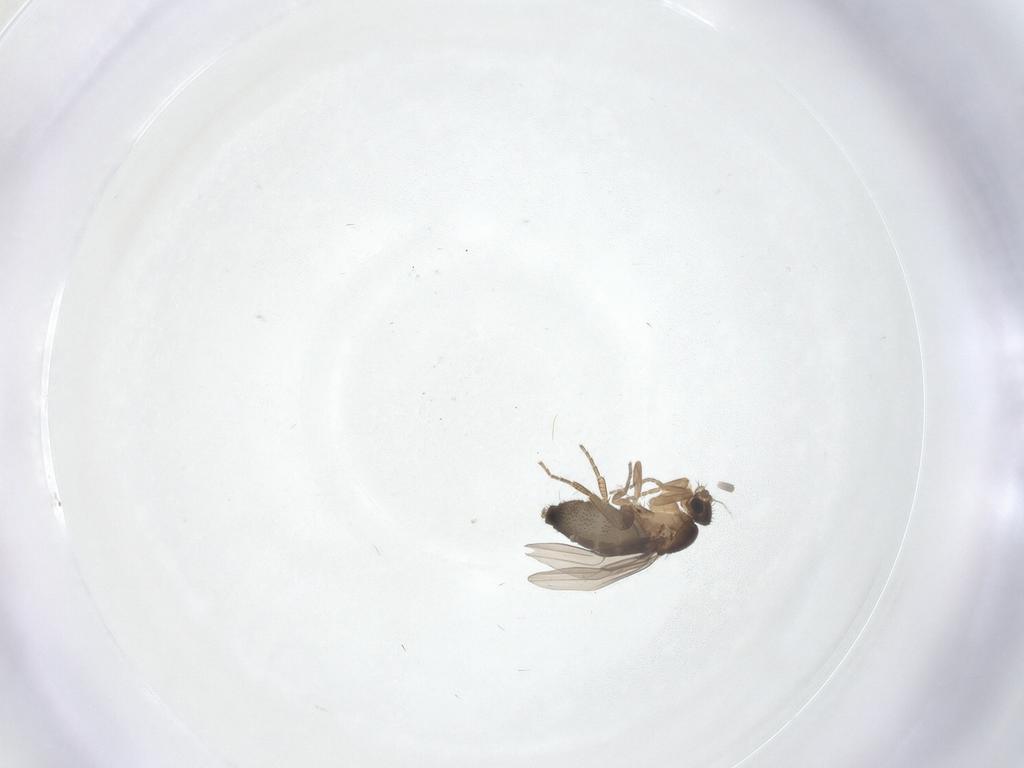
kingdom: Animalia
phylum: Arthropoda
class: Insecta
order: Diptera
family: Phoridae
